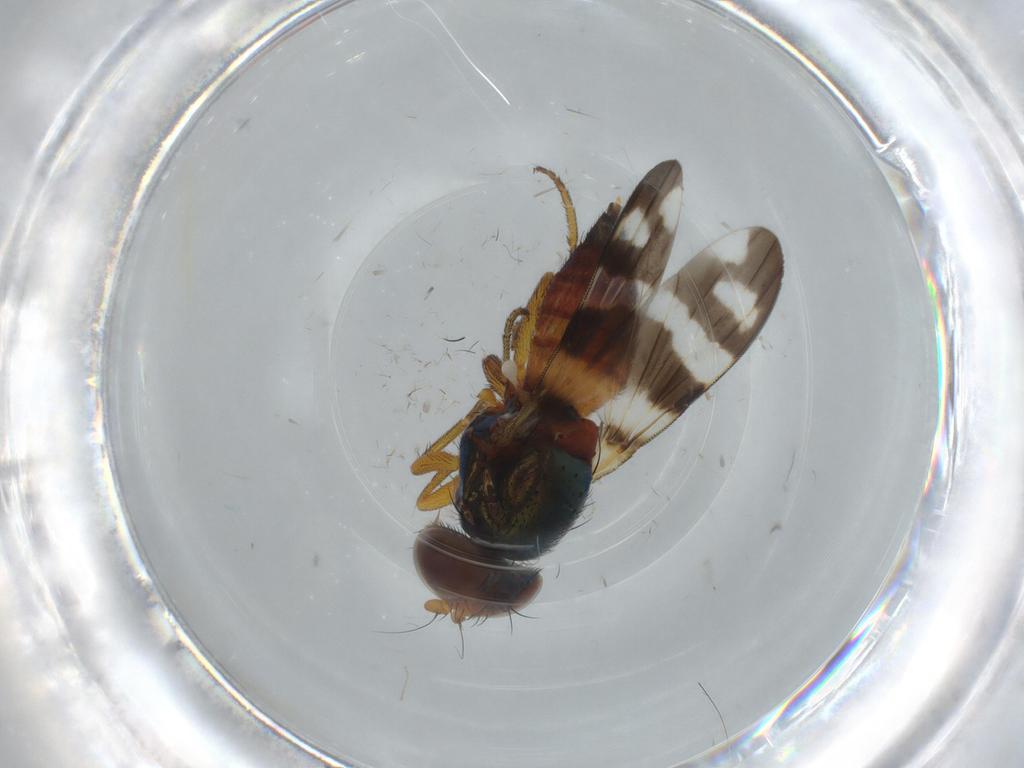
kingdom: Animalia
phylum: Arthropoda
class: Insecta
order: Diptera
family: Ulidiidae
